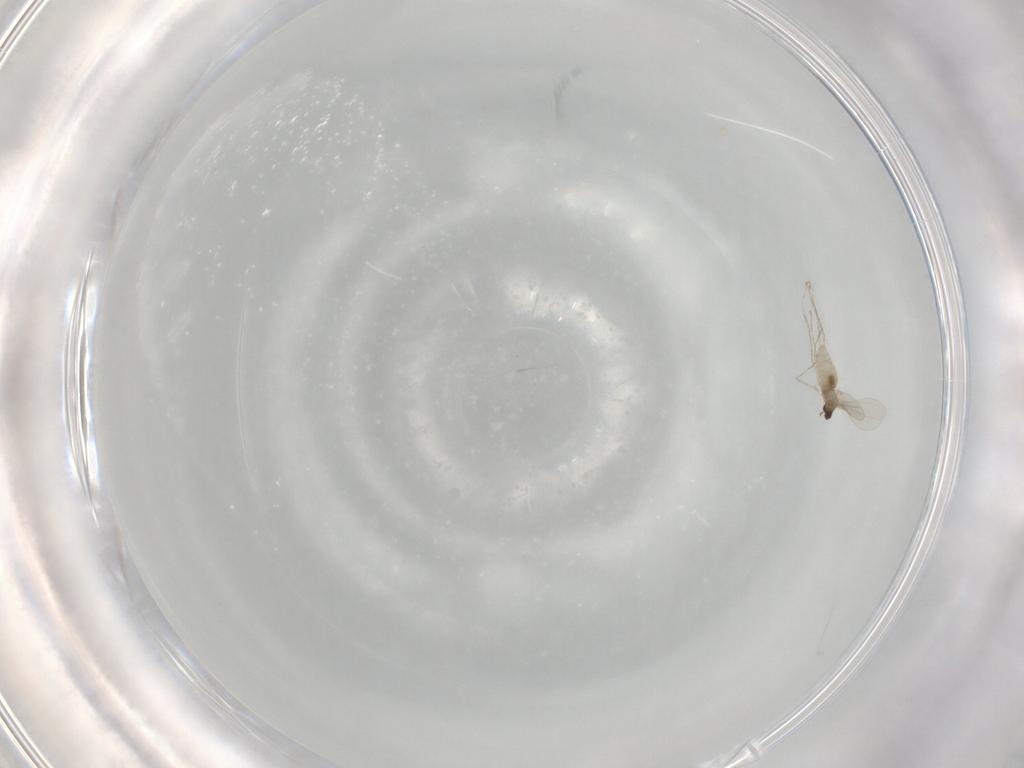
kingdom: Animalia
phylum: Arthropoda
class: Insecta
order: Diptera
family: Cecidomyiidae
